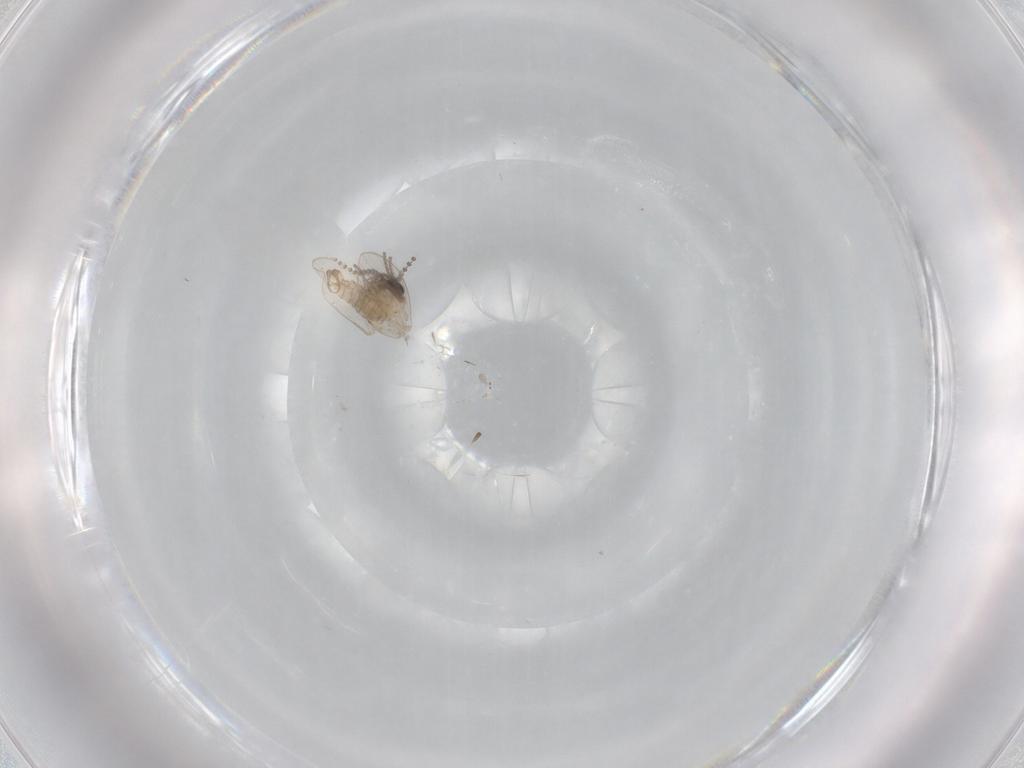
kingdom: Animalia
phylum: Arthropoda
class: Insecta
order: Diptera
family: Psychodidae
